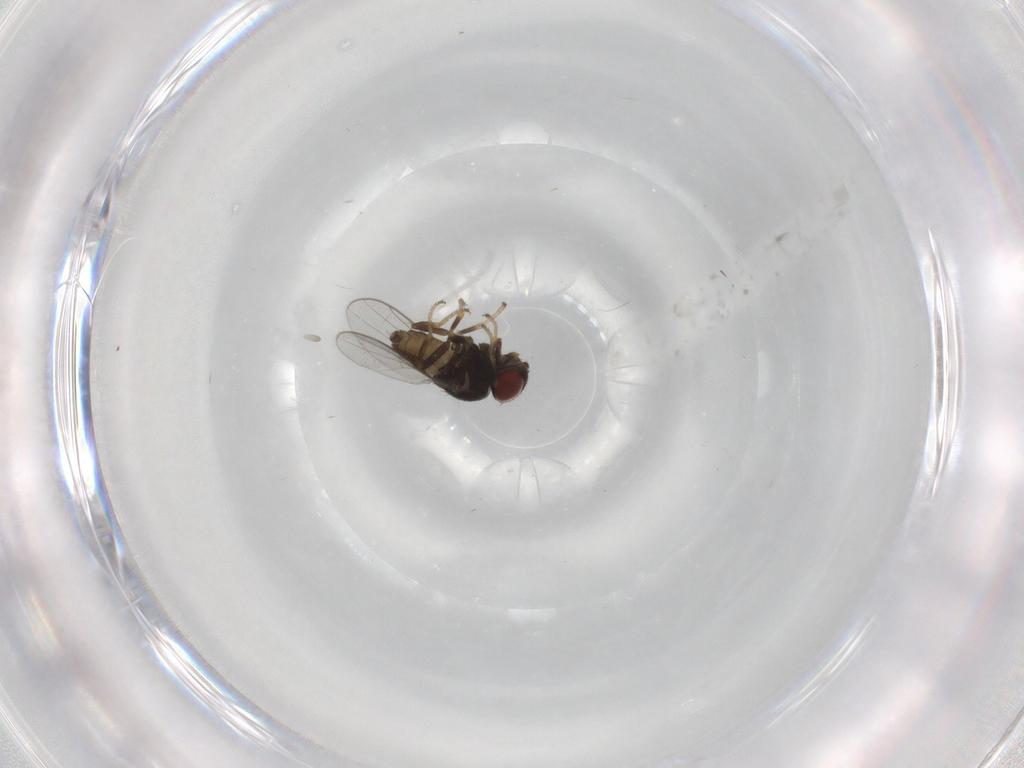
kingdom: Animalia
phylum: Arthropoda
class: Insecta
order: Diptera
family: Chloropidae
